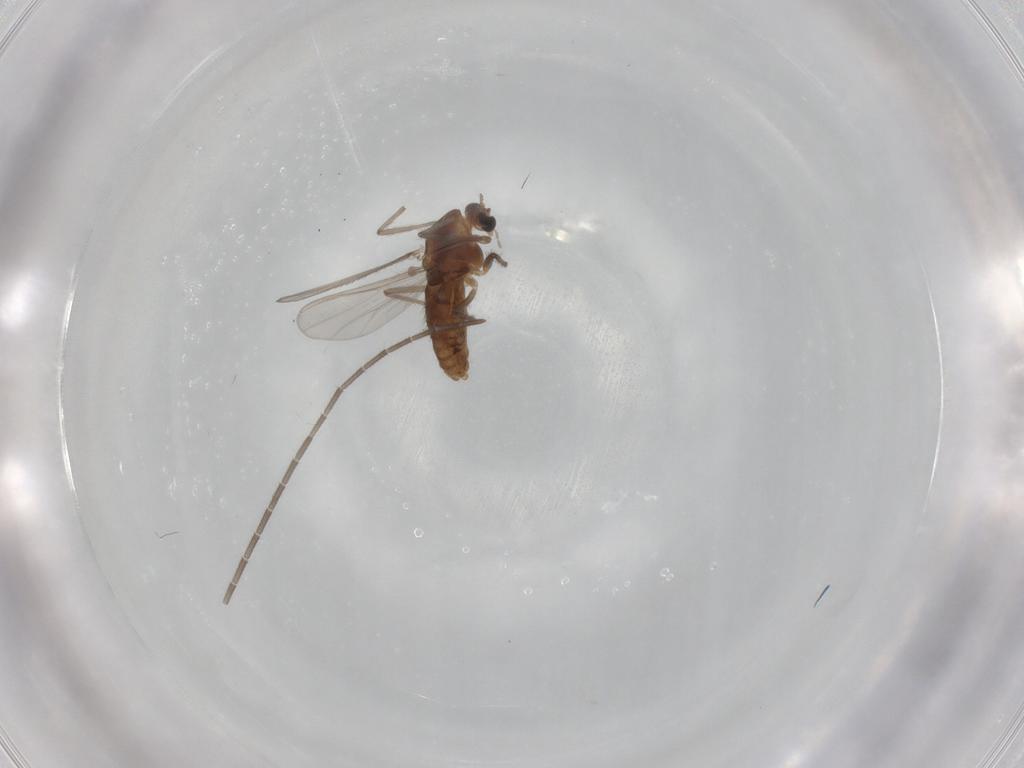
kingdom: Animalia
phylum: Arthropoda
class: Insecta
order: Diptera
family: Chironomidae
